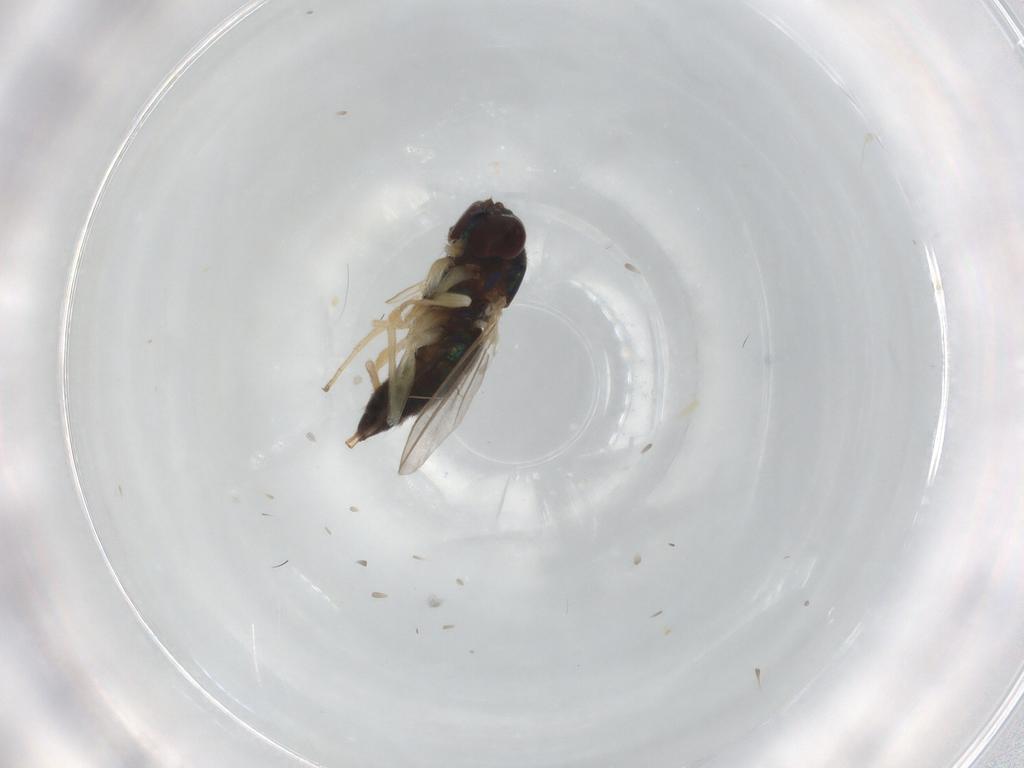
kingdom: Animalia
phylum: Arthropoda
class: Insecta
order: Diptera
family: Dolichopodidae
